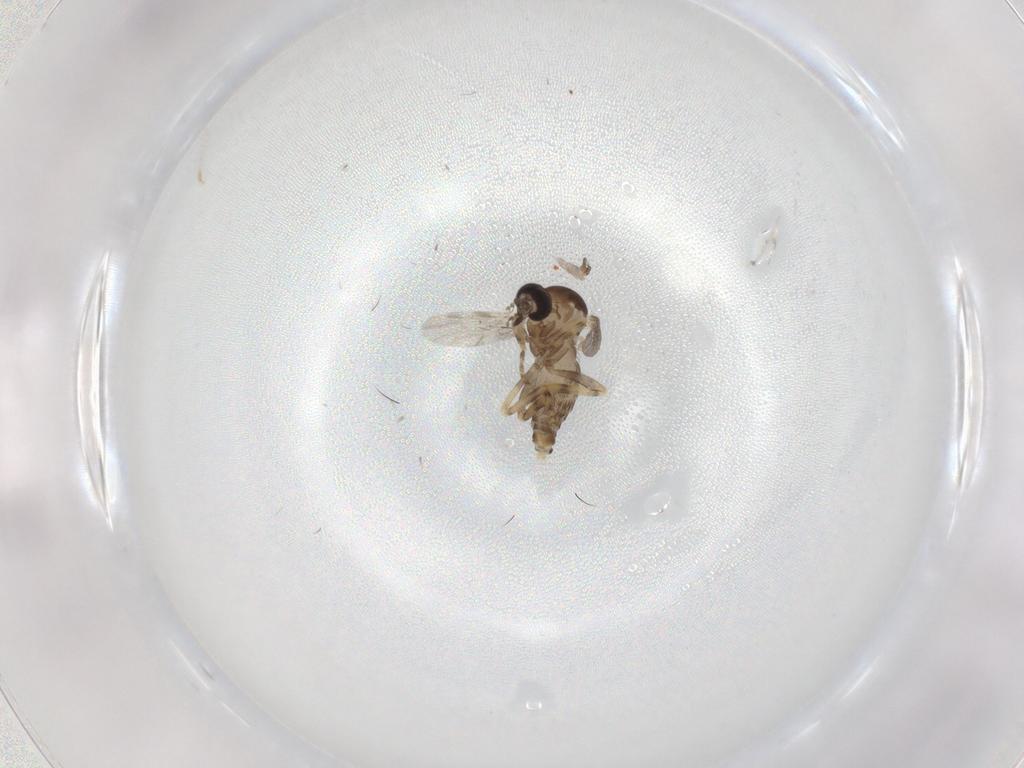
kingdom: Animalia
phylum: Arthropoda
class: Insecta
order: Diptera
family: Ceratopogonidae
